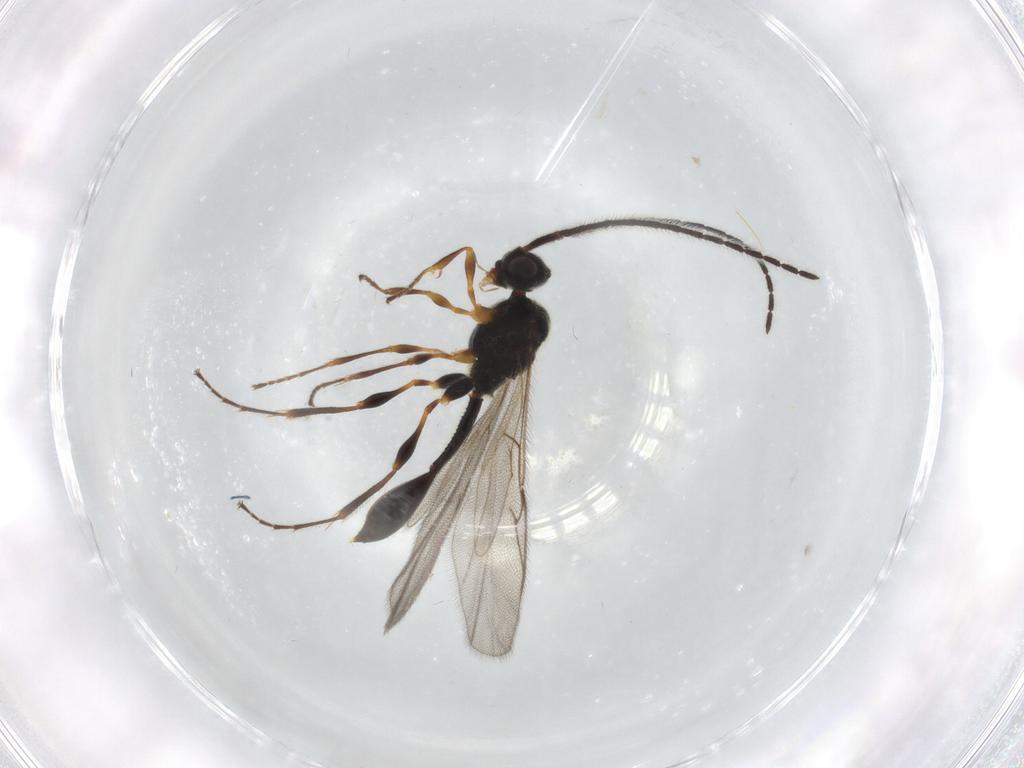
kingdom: Animalia
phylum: Arthropoda
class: Insecta
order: Hymenoptera
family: Diapriidae
